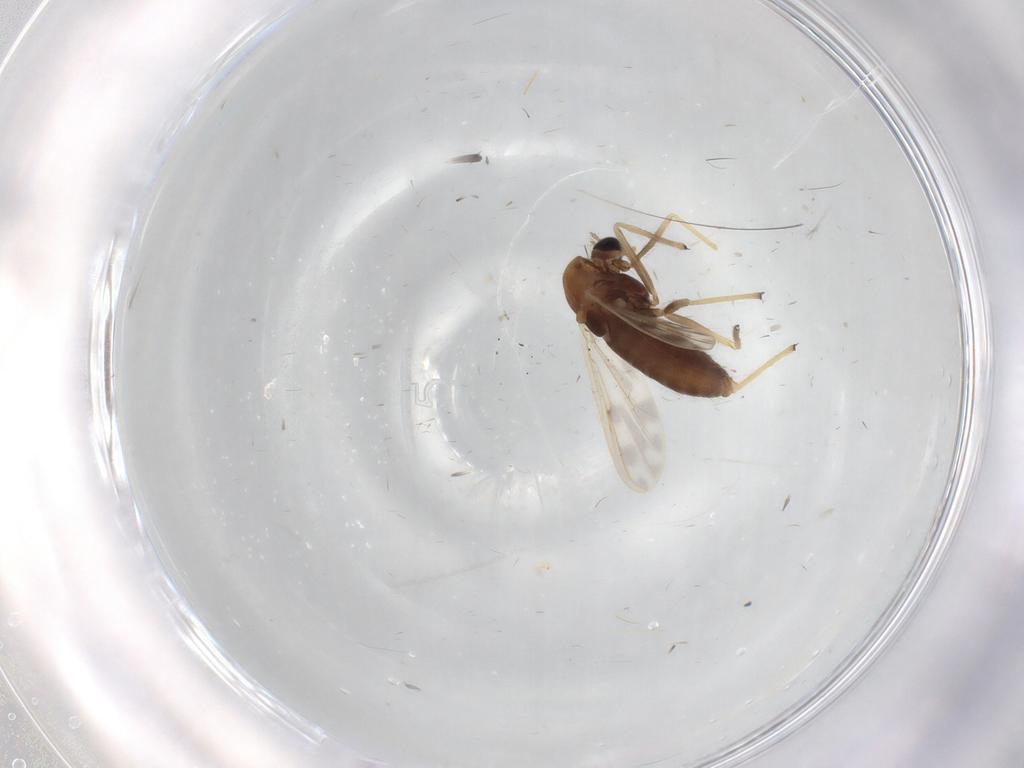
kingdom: Animalia
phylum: Arthropoda
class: Insecta
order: Diptera
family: Chironomidae
